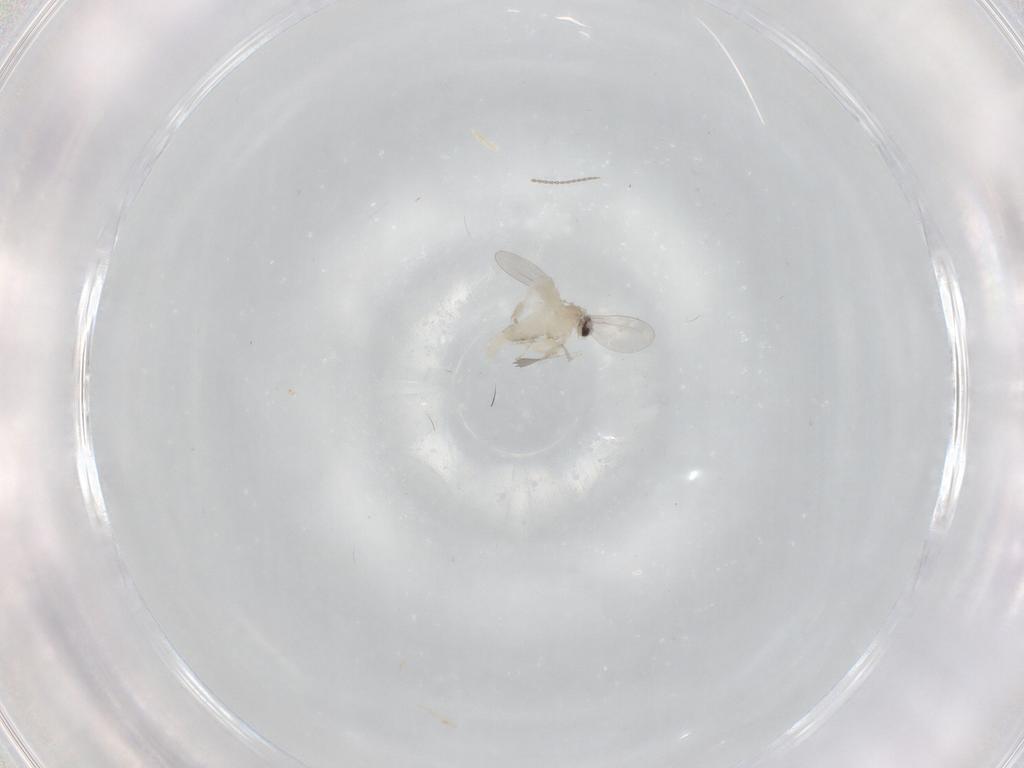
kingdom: Animalia
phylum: Arthropoda
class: Insecta
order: Diptera
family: Cecidomyiidae
